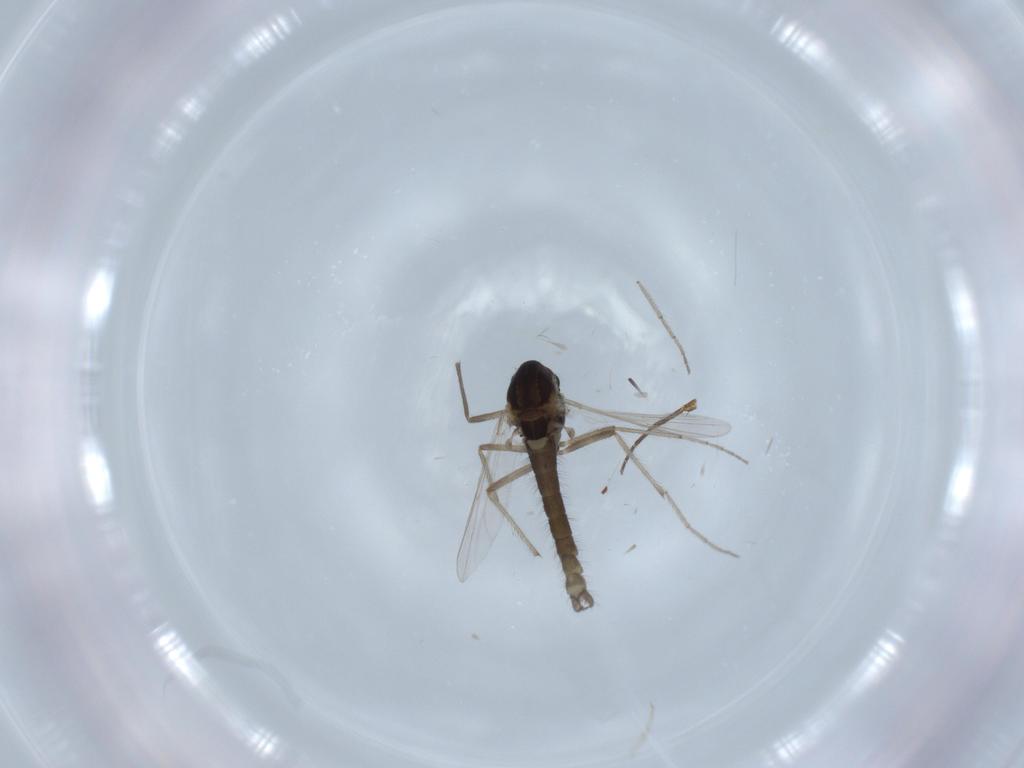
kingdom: Animalia
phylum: Arthropoda
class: Insecta
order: Diptera
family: Chironomidae
